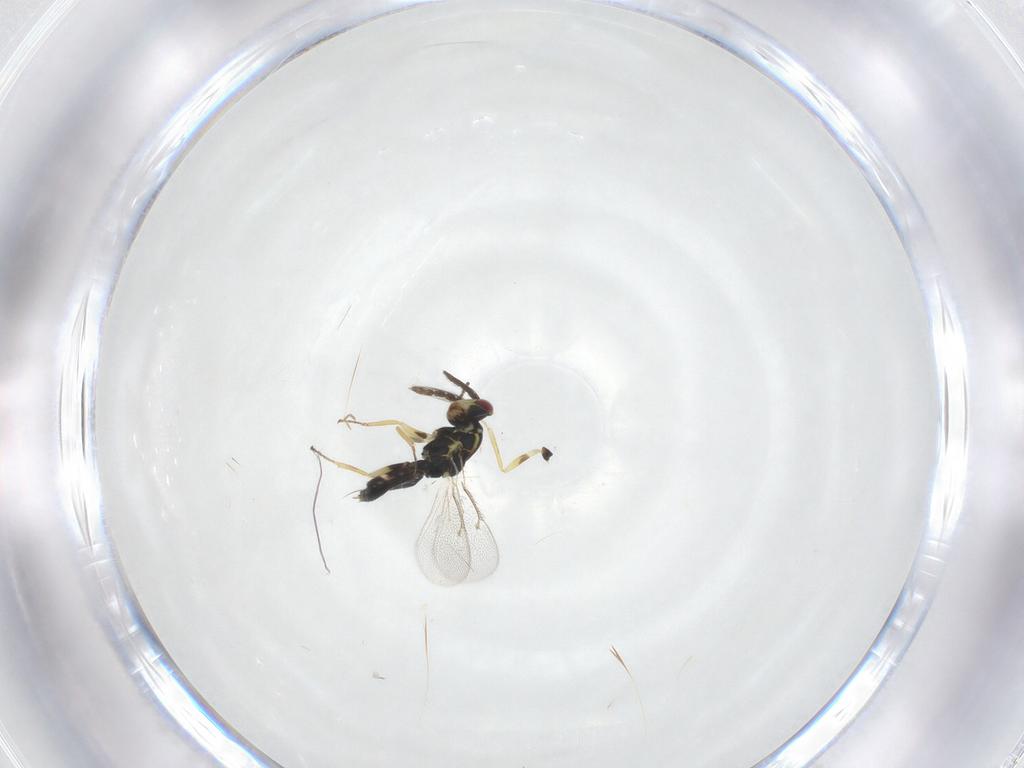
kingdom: Animalia
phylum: Arthropoda
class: Insecta
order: Hymenoptera
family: Eulophidae
